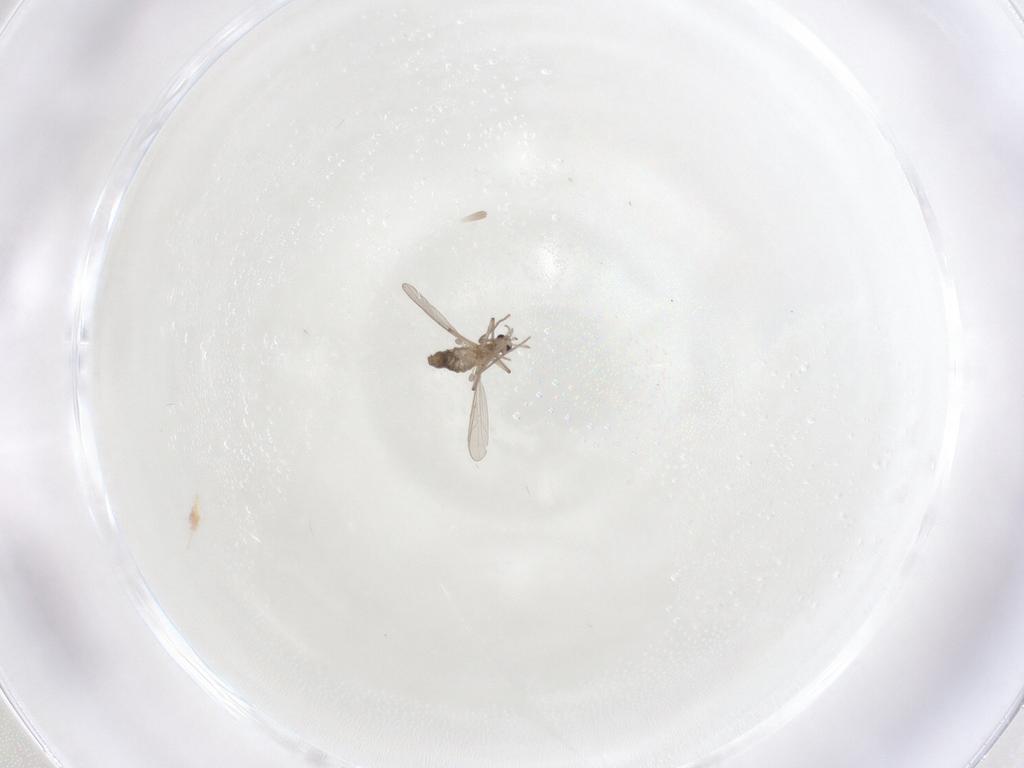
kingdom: Animalia
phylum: Arthropoda
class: Insecta
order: Diptera
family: Chironomidae
